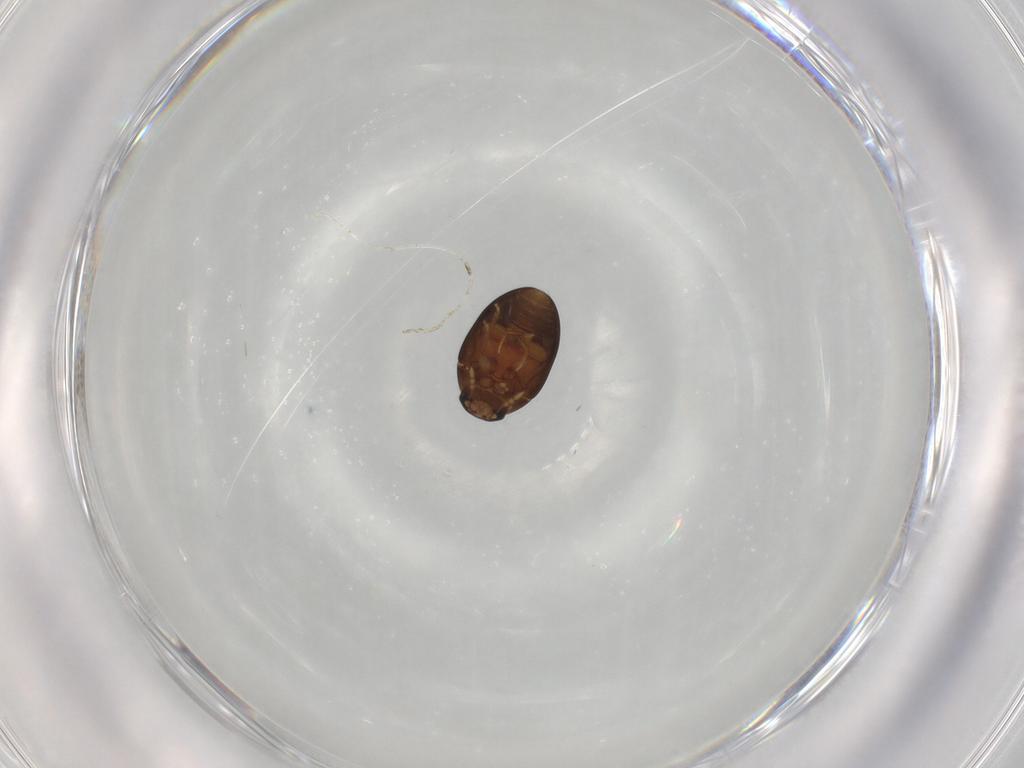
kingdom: Animalia
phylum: Arthropoda
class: Insecta
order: Coleoptera
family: Phalacridae
